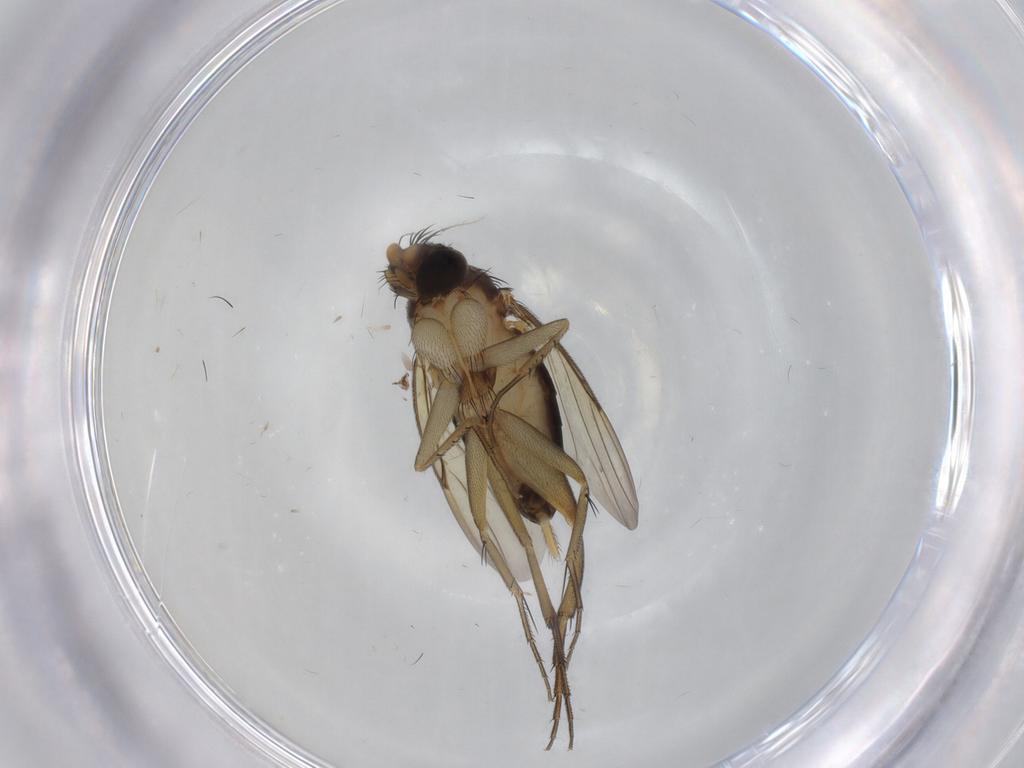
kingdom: Animalia
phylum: Arthropoda
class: Insecta
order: Diptera
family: Phoridae
